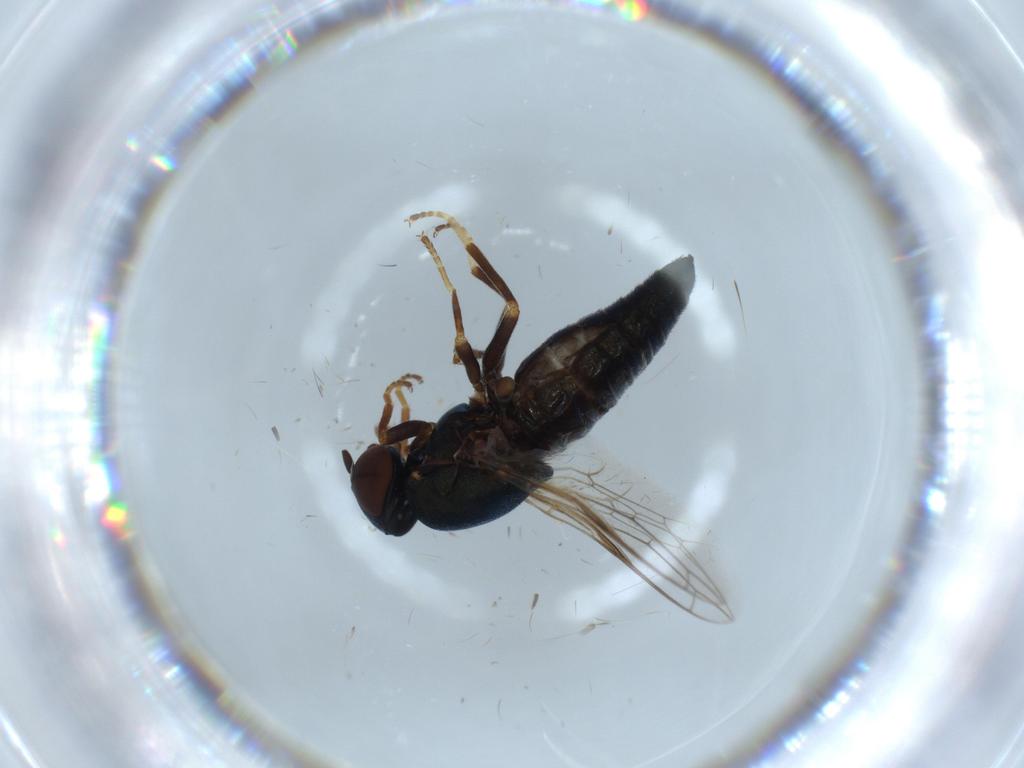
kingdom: Animalia
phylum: Arthropoda
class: Insecta
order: Diptera
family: Scenopinidae
